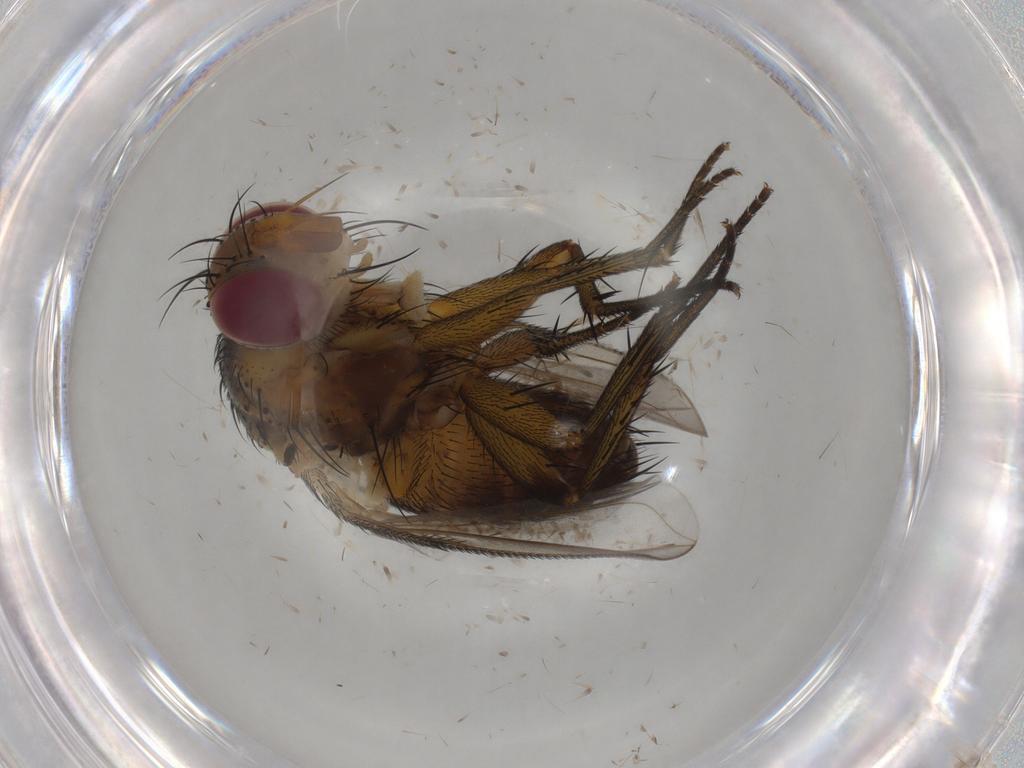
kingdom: Animalia
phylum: Arthropoda
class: Insecta
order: Diptera
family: Tachinidae
